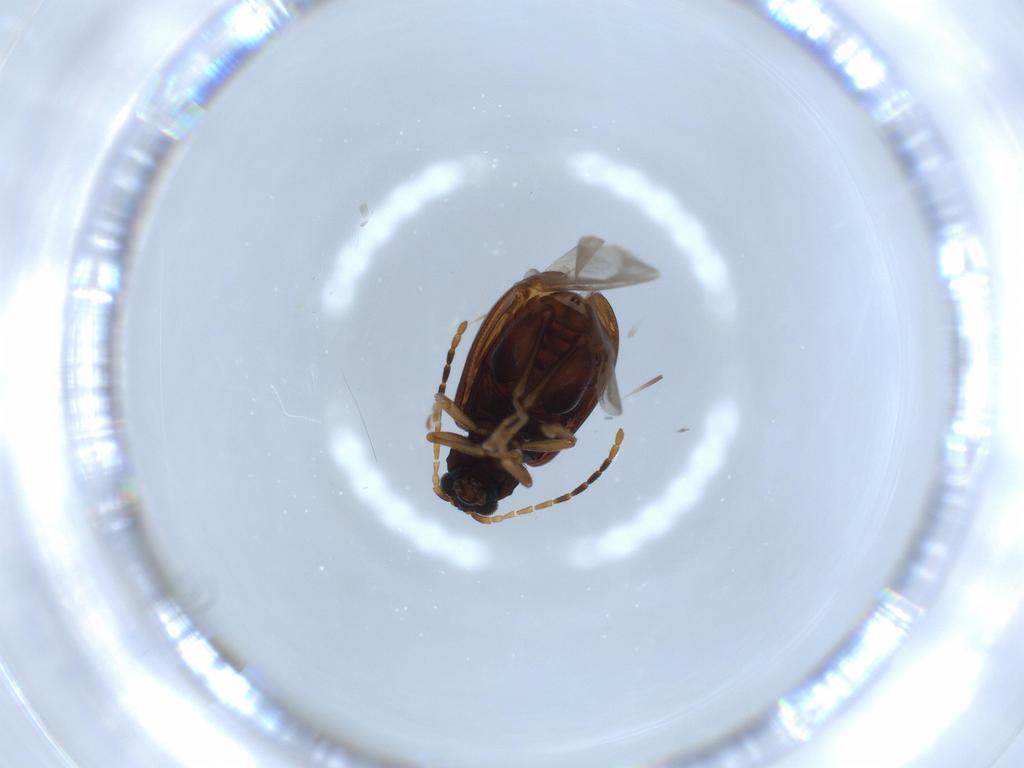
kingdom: Animalia
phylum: Arthropoda
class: Insecta
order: Coleoptera
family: Chrysomelidae
